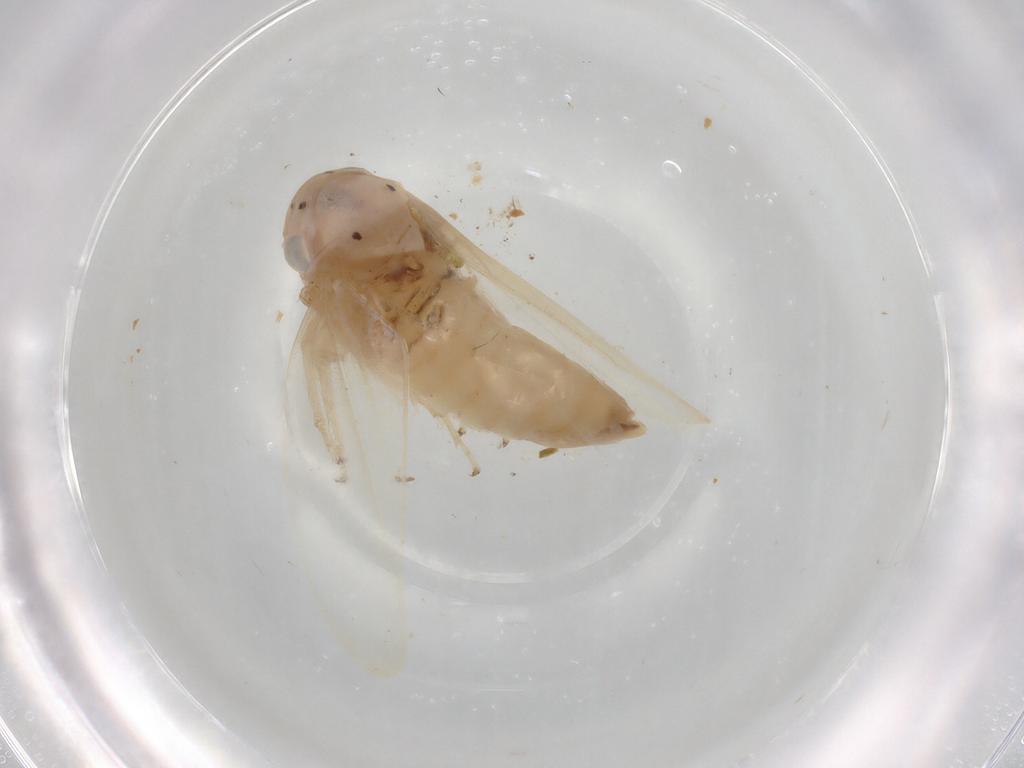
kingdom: Animalia
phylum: Arthropoda
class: Insecta
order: Hemiptera
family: Cicadellidae
